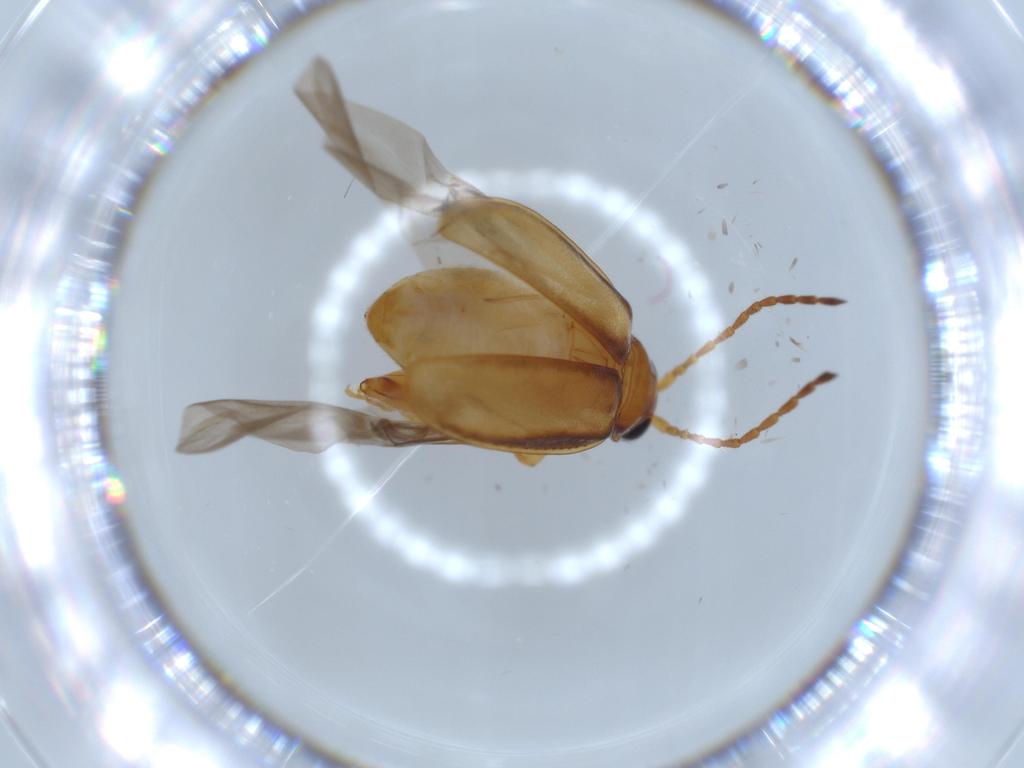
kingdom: Animalia
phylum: Arthropoda
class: Insecta
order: Coleoptera
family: Chrysomelidae
